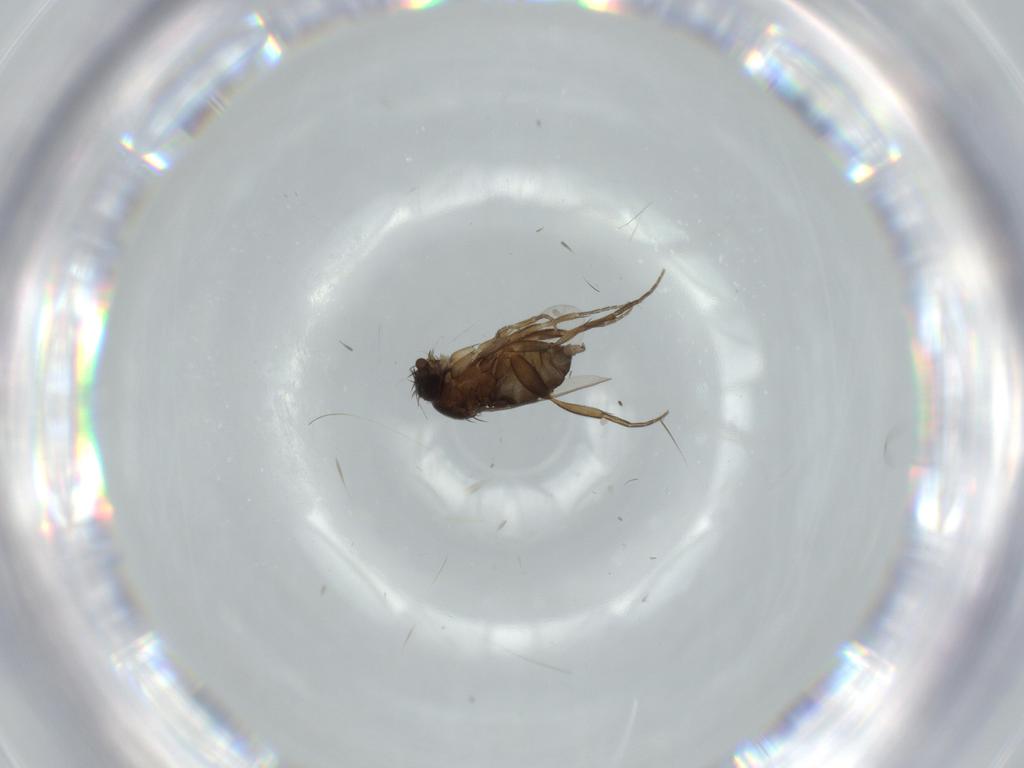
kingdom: Animalia
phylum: Arthropoda
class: Insecta
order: Diptera
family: Phoridae
